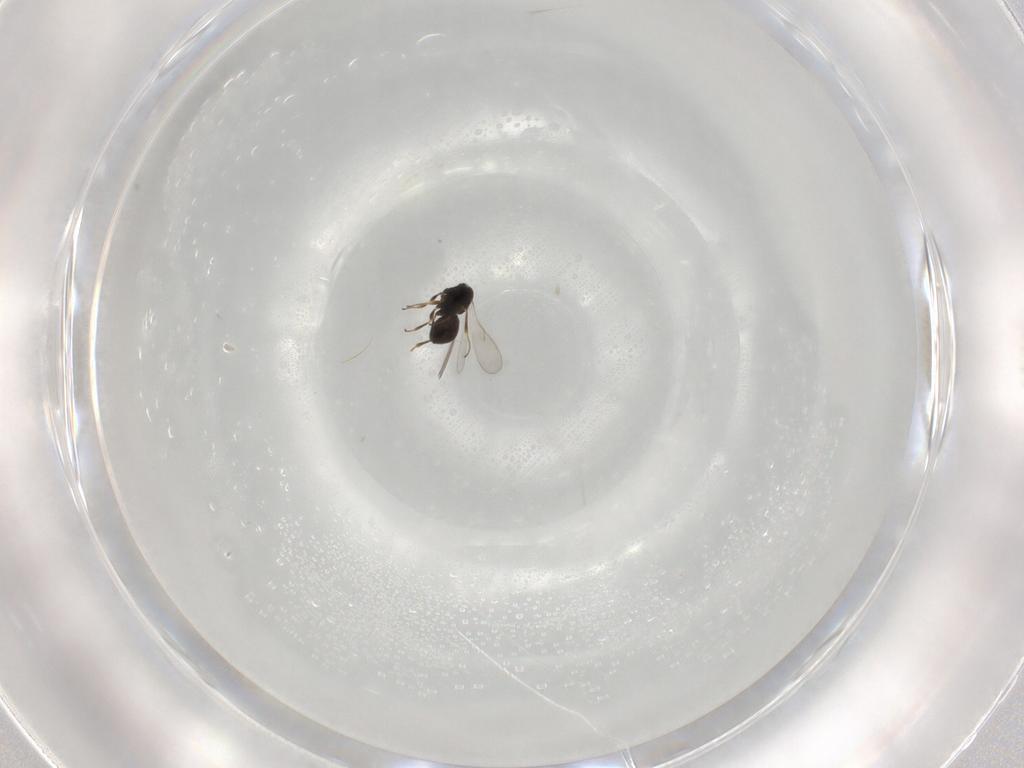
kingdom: Animalia
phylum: Arthropoda
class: Insecta
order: Hymenoptera
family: Scelionidae
